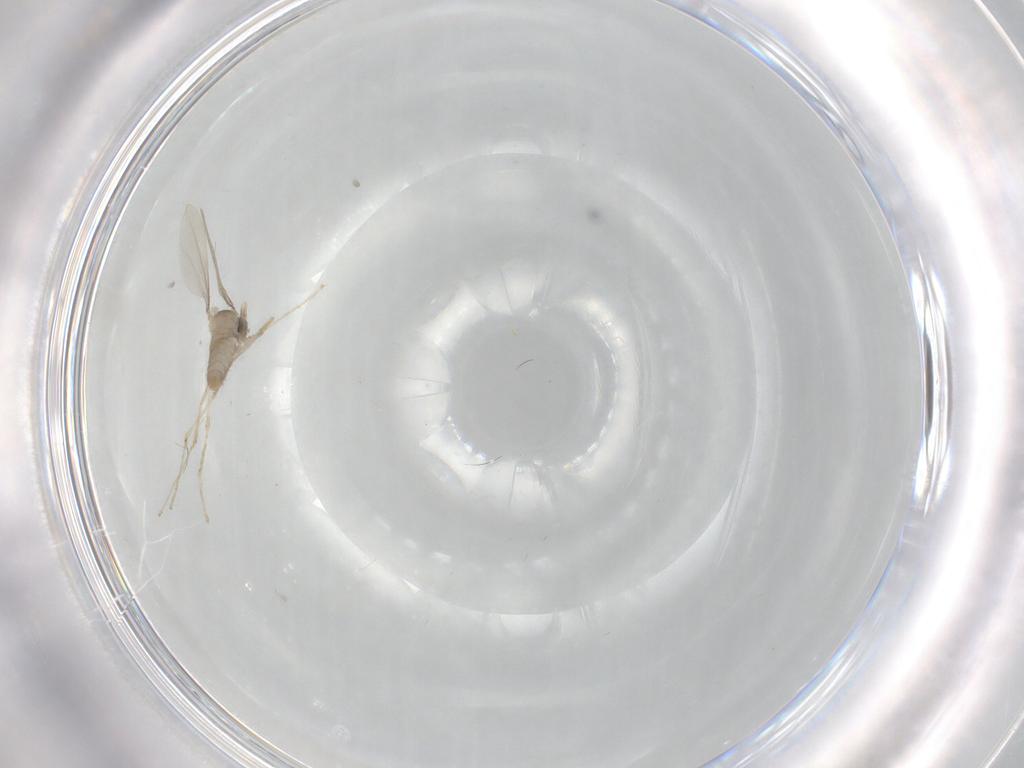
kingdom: Animalia
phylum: Arthropoda
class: Insecta
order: Diptera
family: Cecidomyiidae
